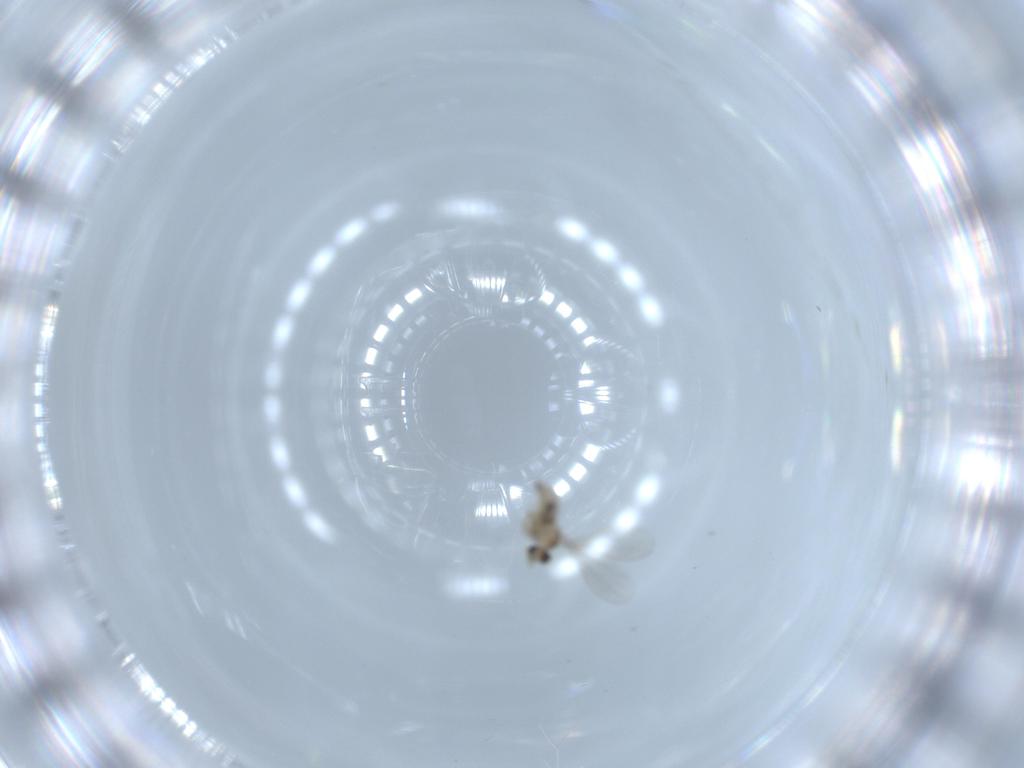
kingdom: Animalia
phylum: Arthropoda
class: Insecta
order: Diptera
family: Cecidomyiidae
